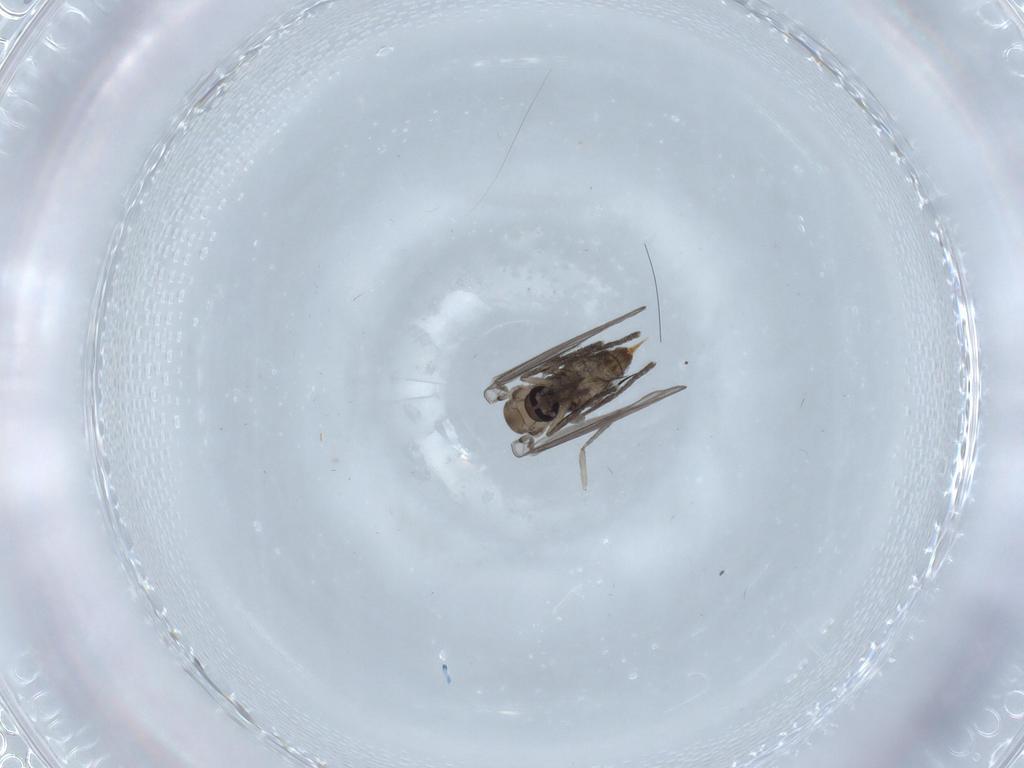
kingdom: Animalia
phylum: Arthropoda
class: Insecta
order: Diptera
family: Psychodidae
